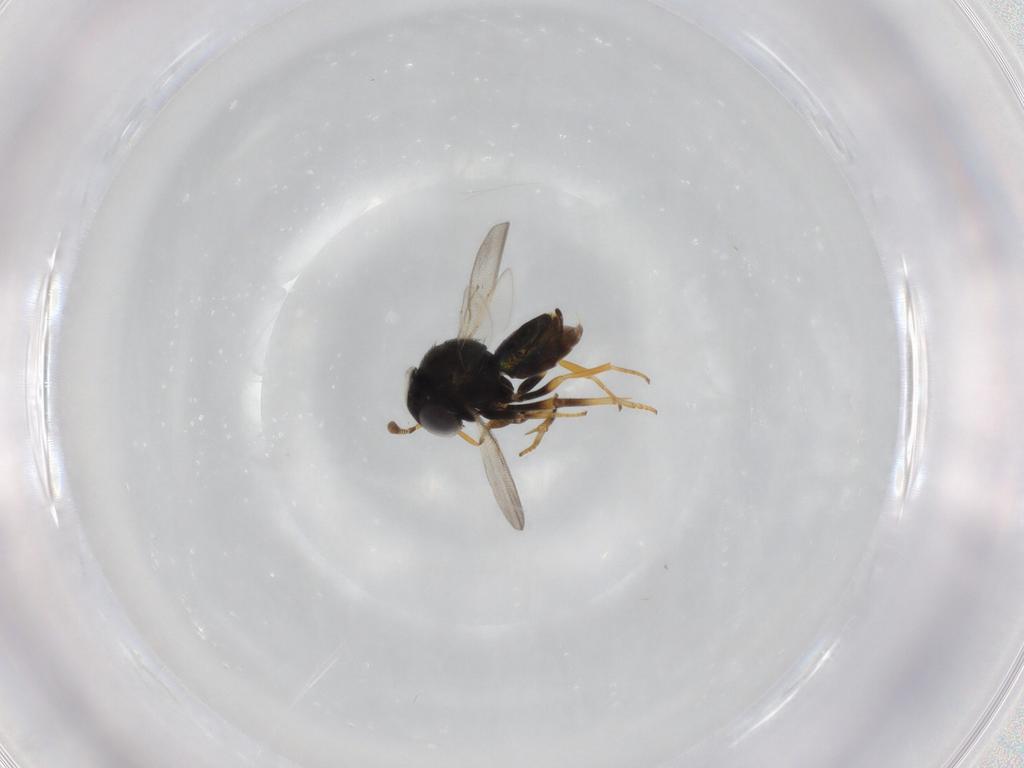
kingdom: Animalia
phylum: Arthropoda
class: Insecta
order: Hymenoptera
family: Encyrtidae
